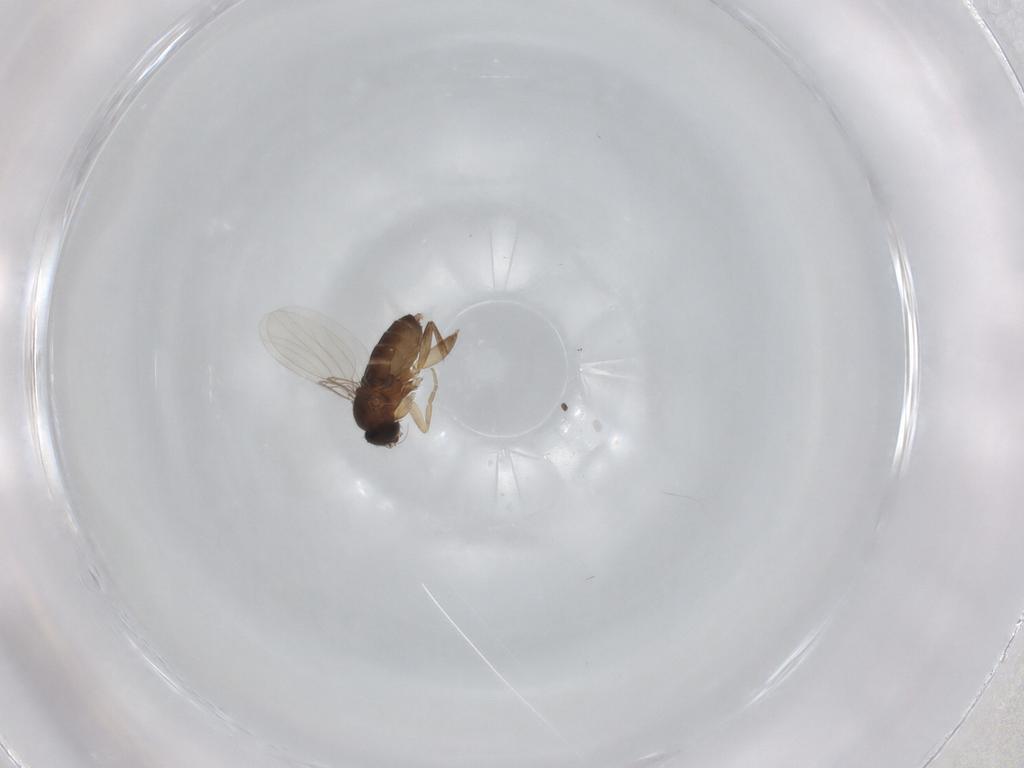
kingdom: Animalia
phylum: Arthropoda
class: Insecta
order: Diptera
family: Phoridae
